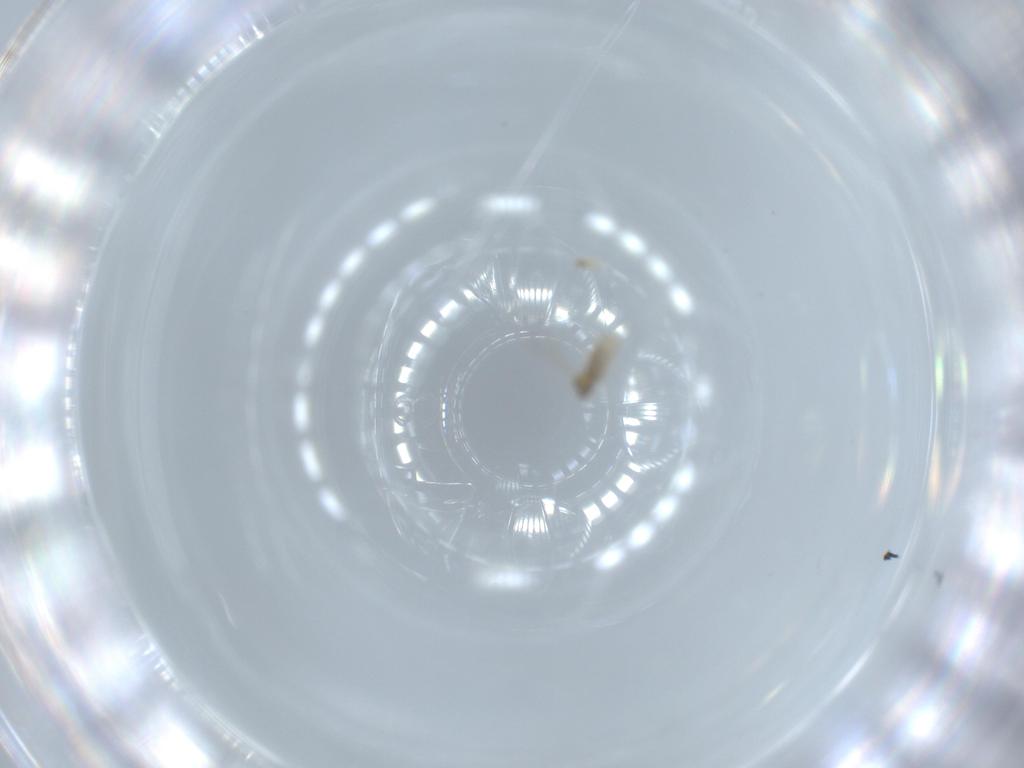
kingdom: Animalia
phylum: Arthropoda
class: Insecta
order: Diptera
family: Cecidomyiidae
